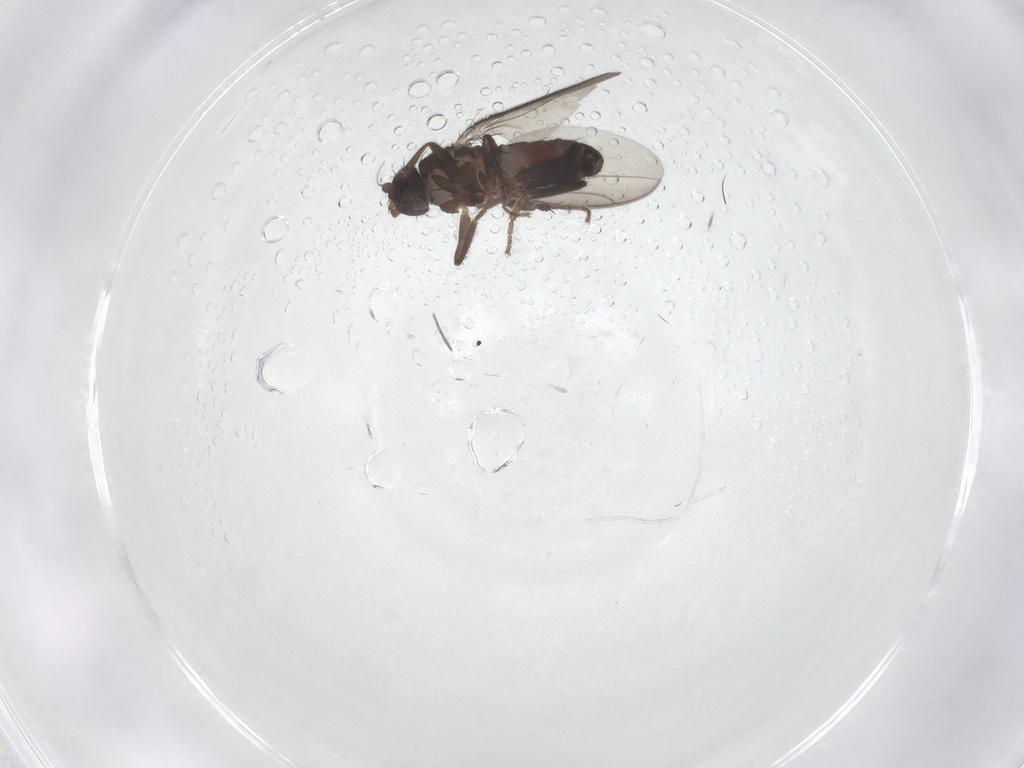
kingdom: Animalia
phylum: Arthropoda
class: Insecta
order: Diptera
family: Sphaeroceridae
